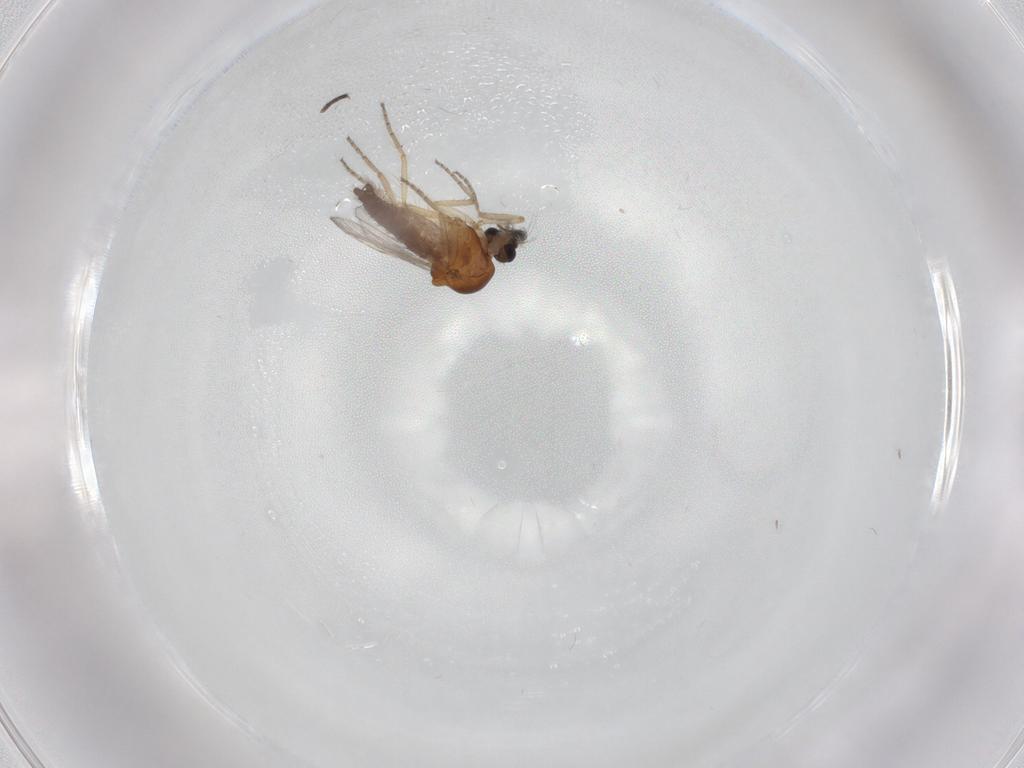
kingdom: Animalia
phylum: Arthropoda
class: Insecta
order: Diptera
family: Ceratopogonidae
